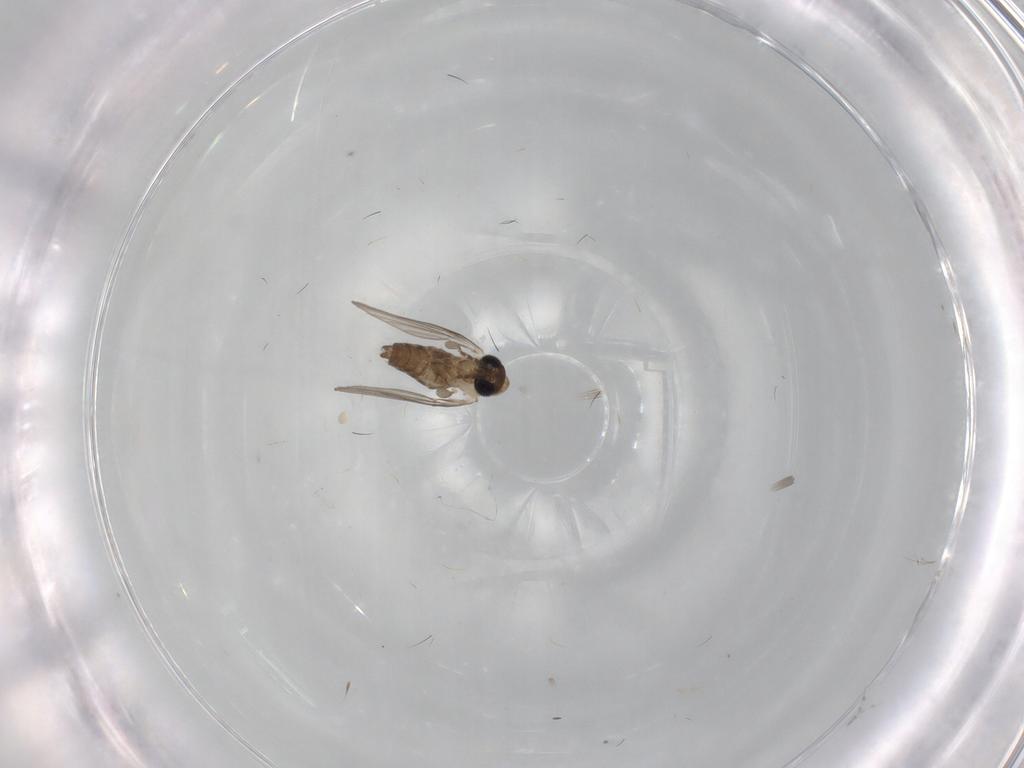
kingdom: Animalia
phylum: Arthropoda
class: Insecta
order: Diptera
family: Psychodidae
